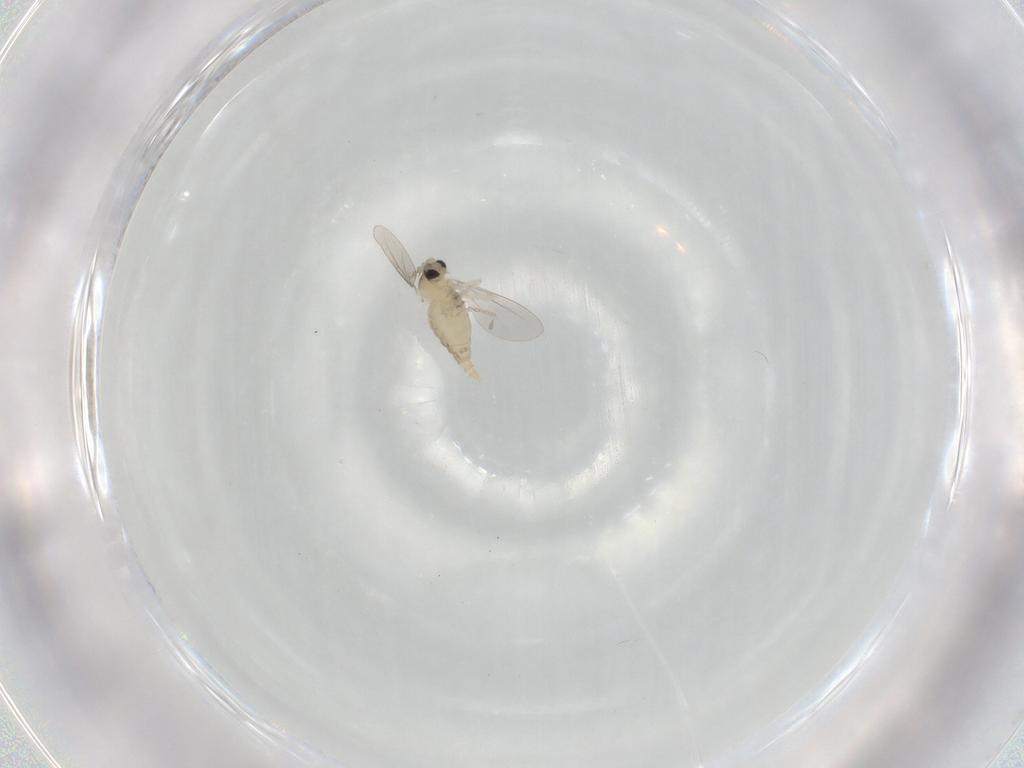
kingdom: Animalia
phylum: Arthropoda
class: Insecta
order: Diptera
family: Cecidomyiidae
